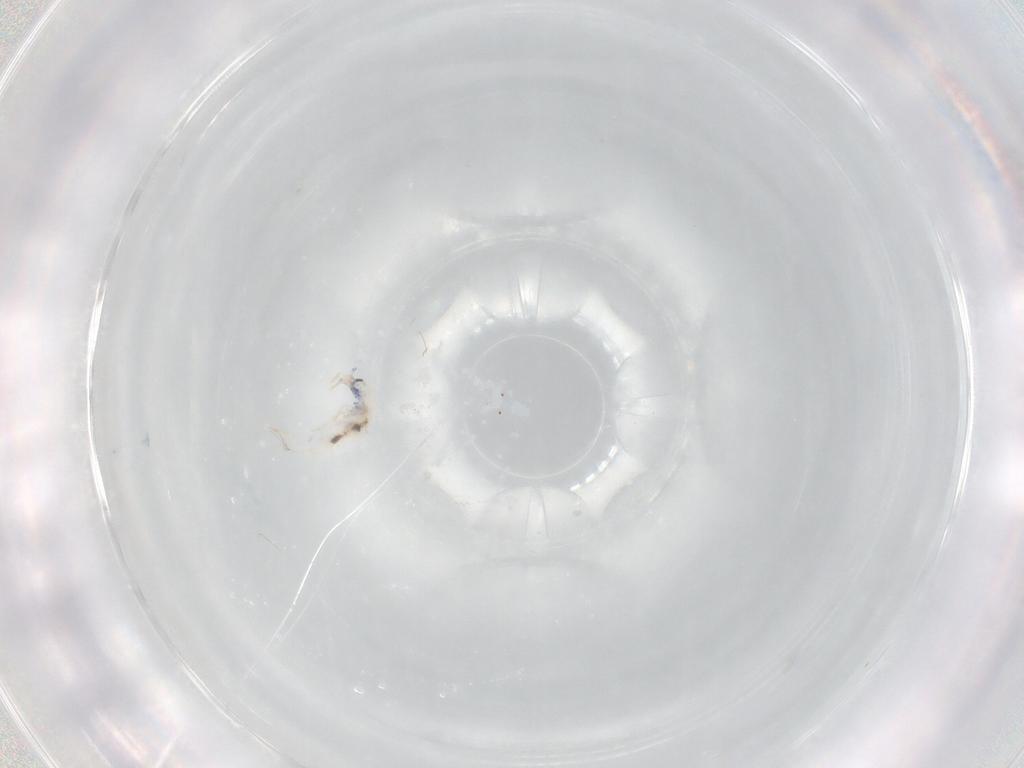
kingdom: Animalia
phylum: Arthropoda
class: Collembola
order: Entomobryomorpha
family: Entomobryidae
